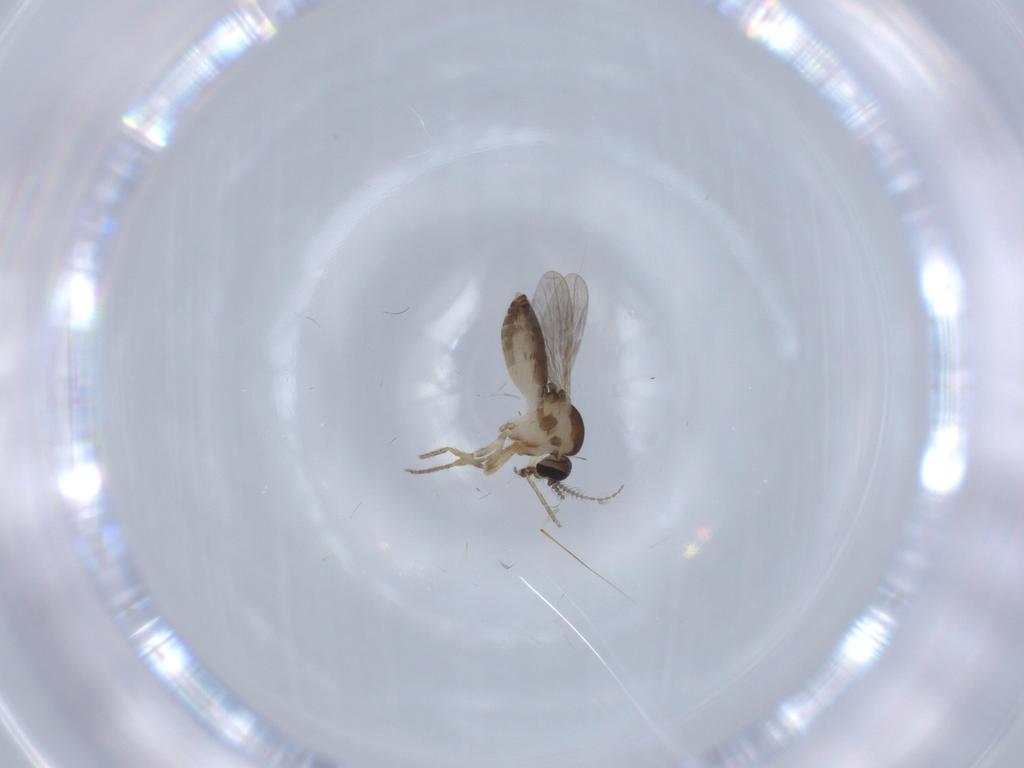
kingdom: Animalia
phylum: Arthropoda
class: Insecta
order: Diptera
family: Ceratopogonidae
